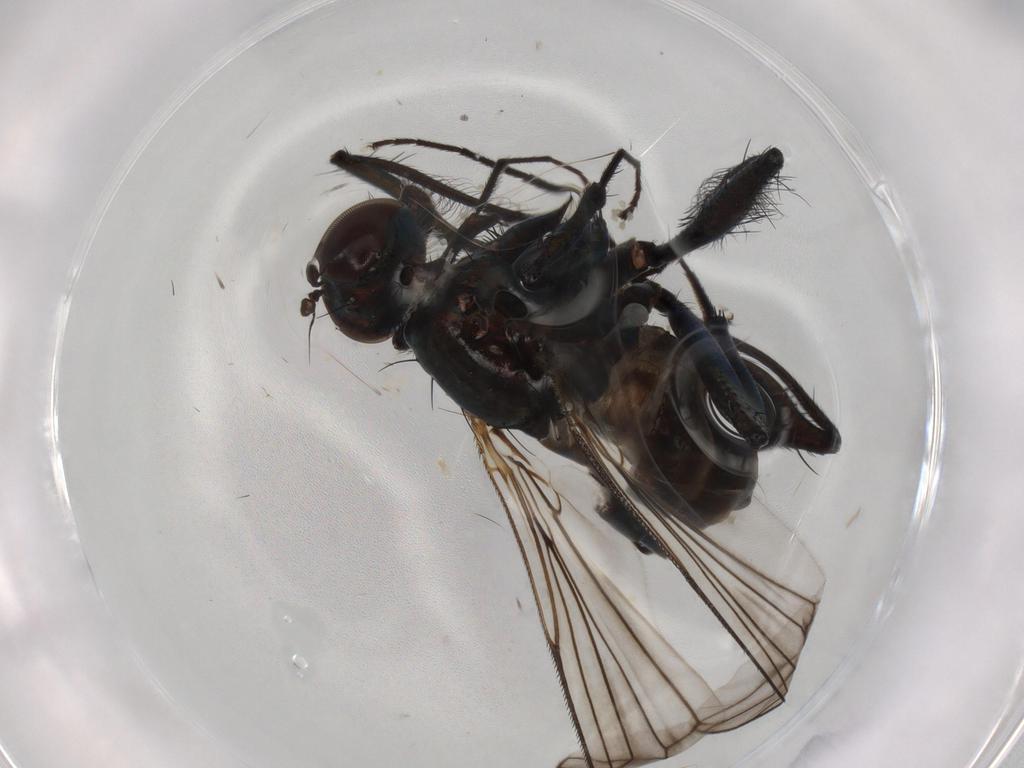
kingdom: Animalia
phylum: Arthropoda
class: Insecta
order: Diptera
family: Dolichopodidae
